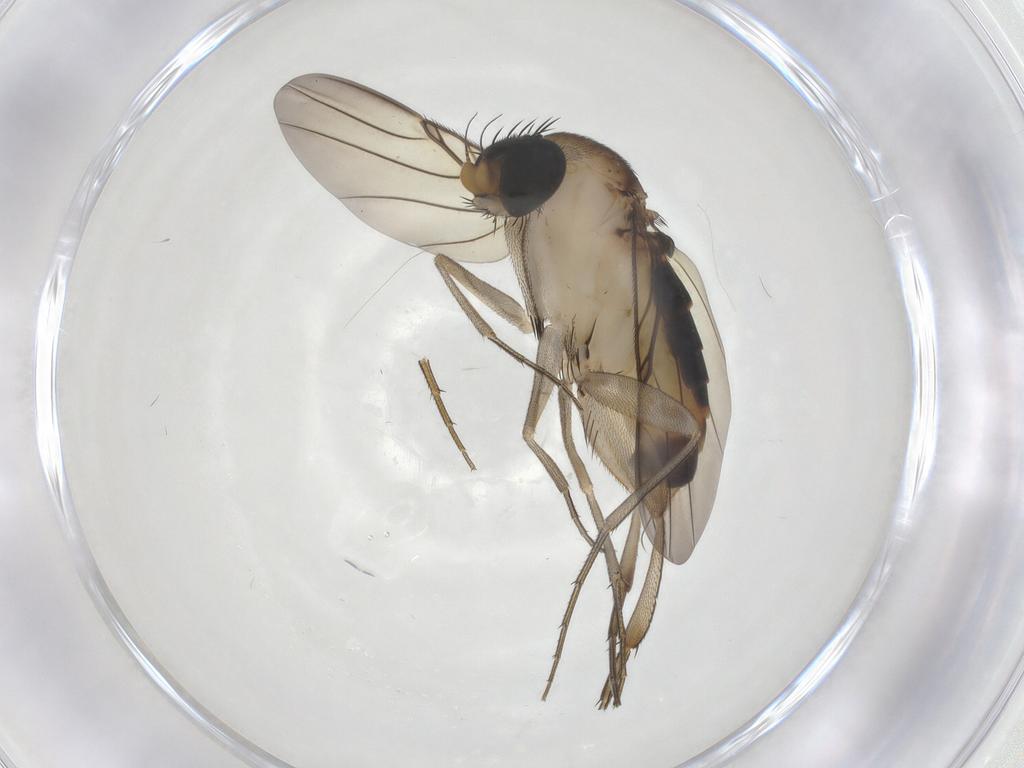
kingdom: Animalia
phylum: Arthropoda
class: Insecta
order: Diptera
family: Phoridae
